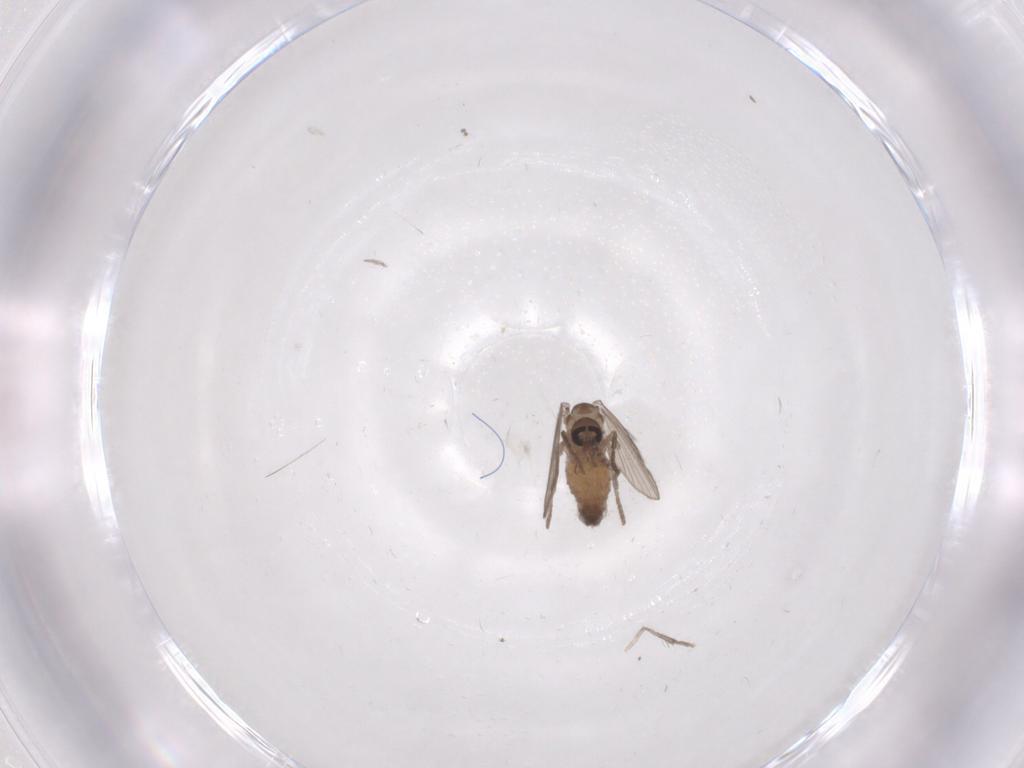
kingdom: Animalia
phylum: Arthropoda
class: Insecta
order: Diptera
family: Psychodidae
